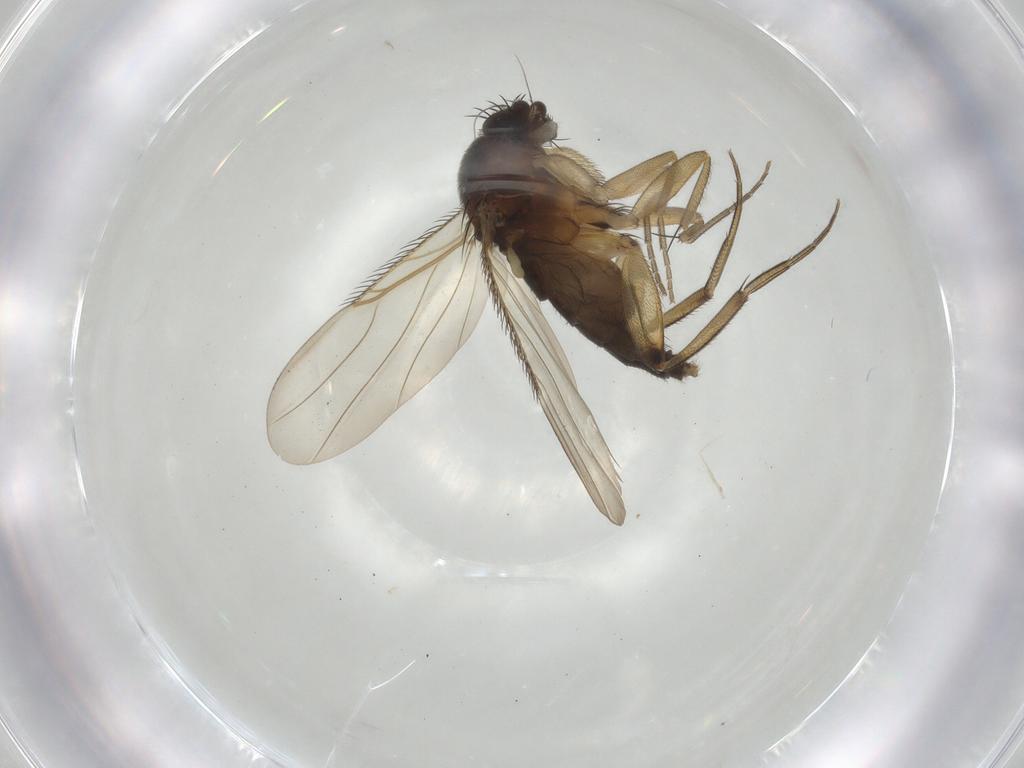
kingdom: Animalia
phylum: Arthropoda
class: Insecta
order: Diptera
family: Phoridae
